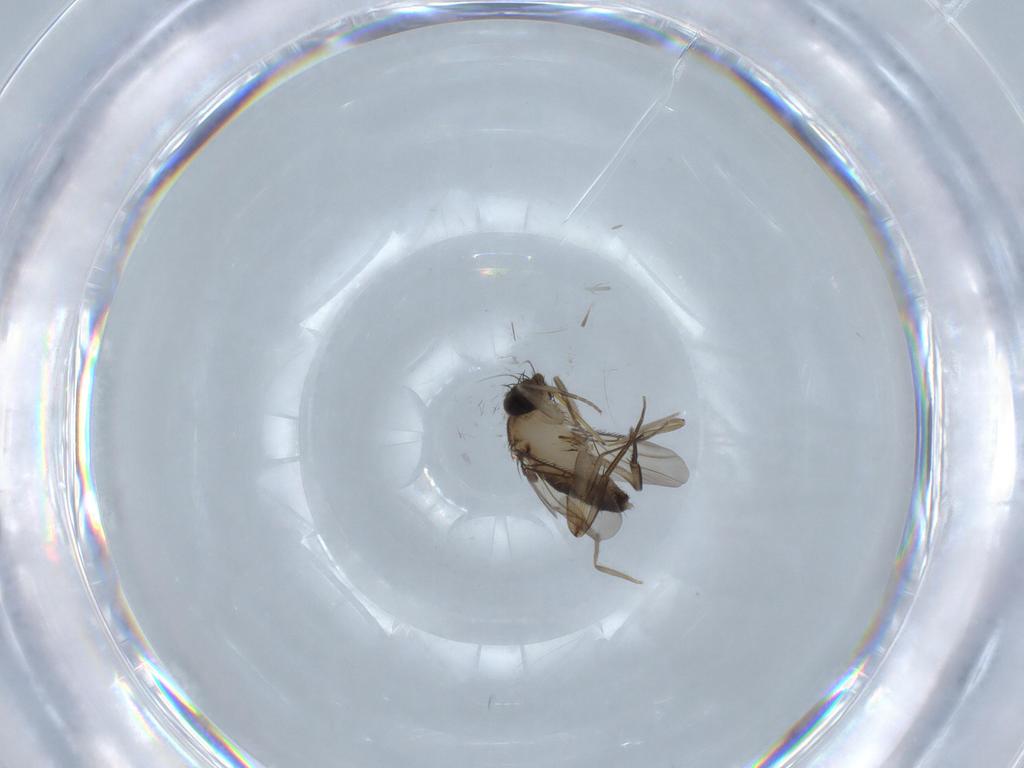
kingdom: Animalia
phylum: Arthropoda
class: Insecta
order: Diptera
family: Phoridae
